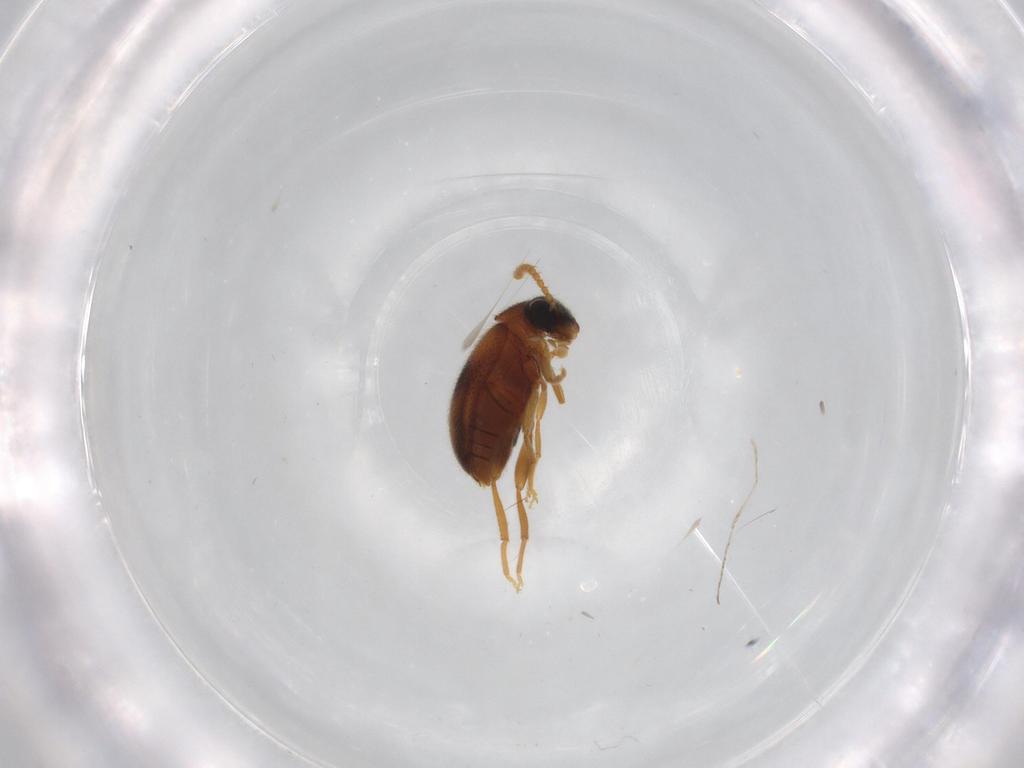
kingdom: Animalia
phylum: Arthropoda
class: Insecta
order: Coleoptera
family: Aderidae
